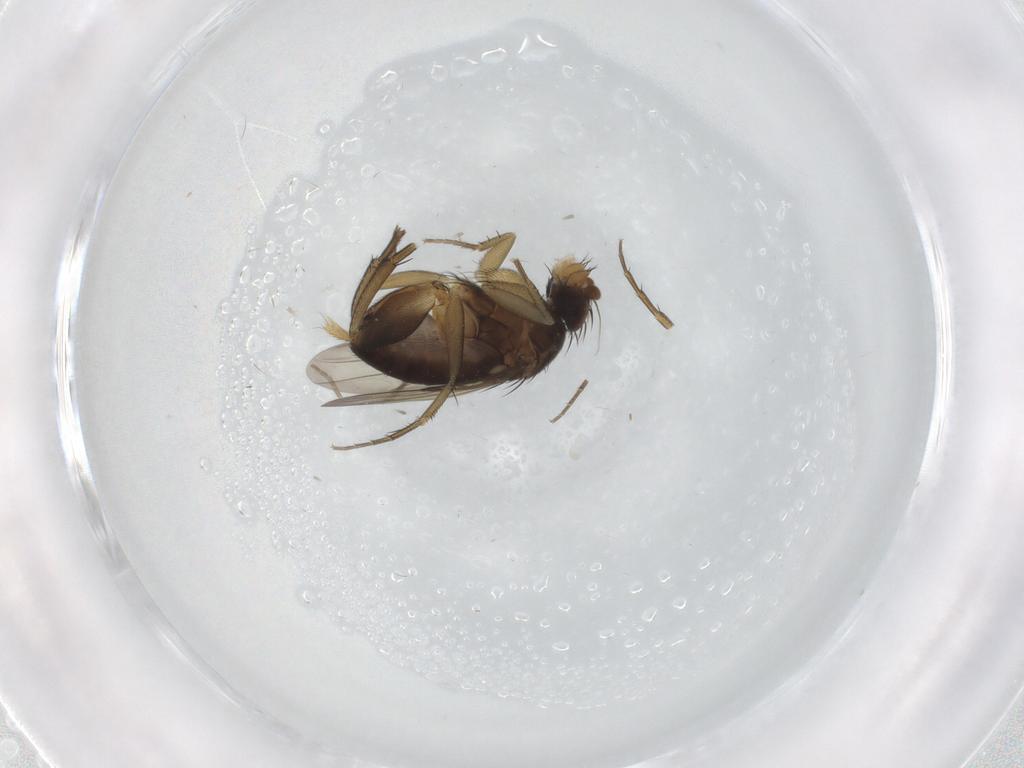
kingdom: Animalia
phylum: Arthropoda
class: Insecta
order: Diptera
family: Phoridae
